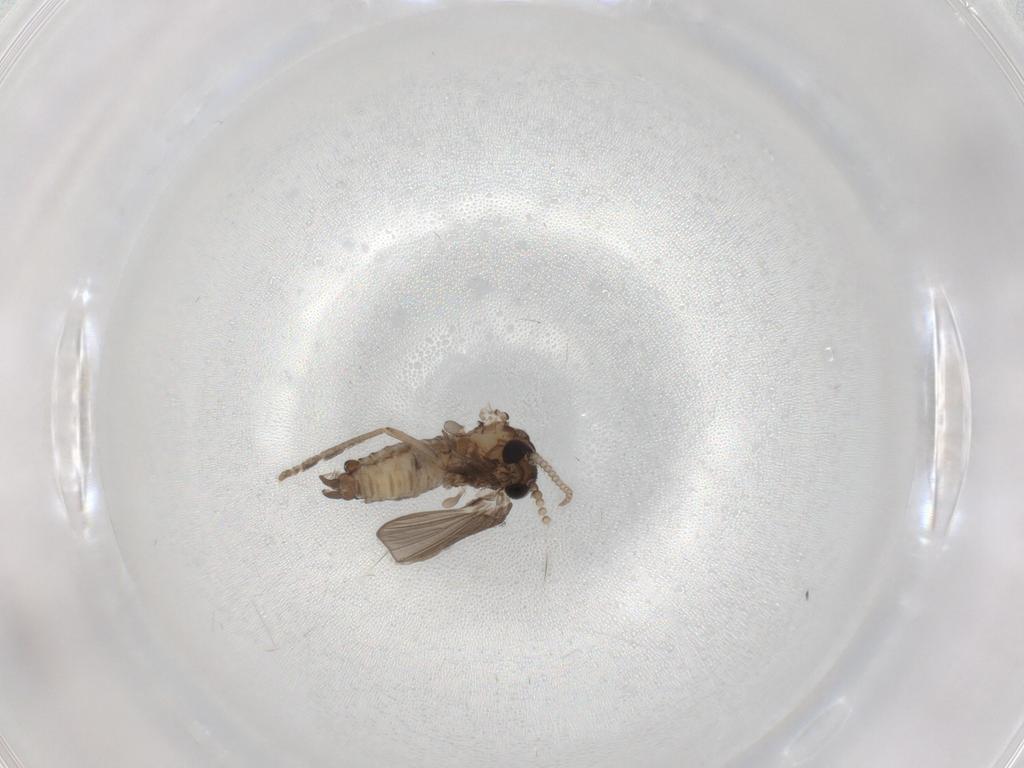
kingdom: Animalia
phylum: Arthropoda
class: Insecta
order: Diptera
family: Psychodidae
